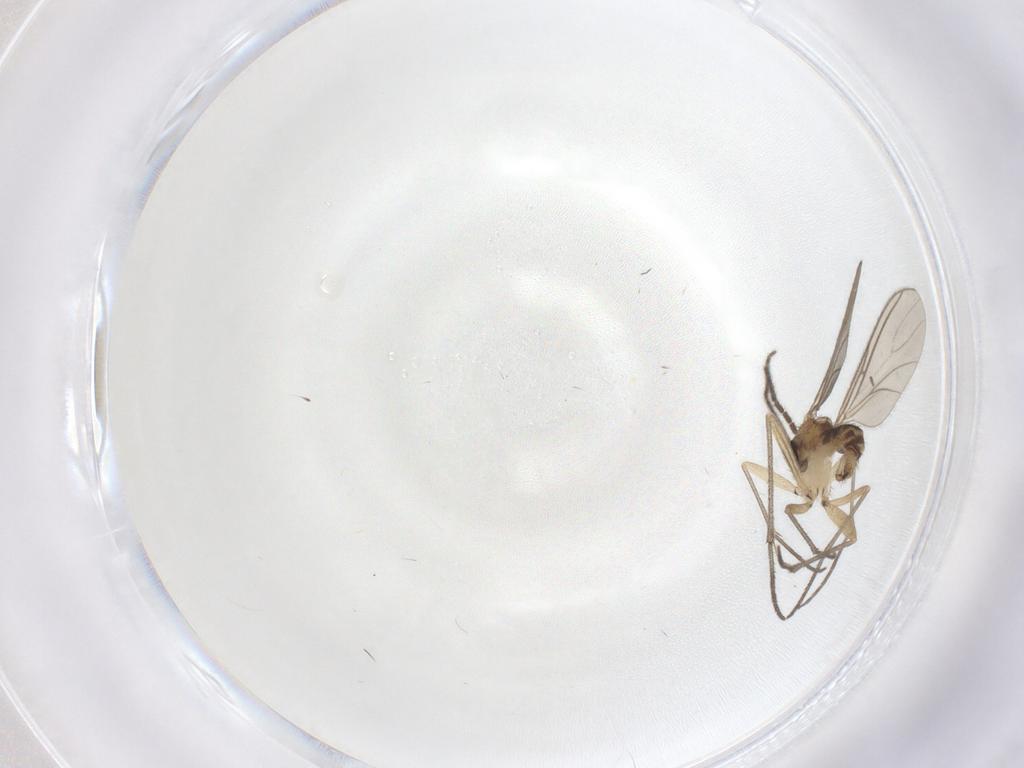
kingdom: Animalia
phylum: Arthropoda
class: Insecta
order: Diptera
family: Sciaridae
